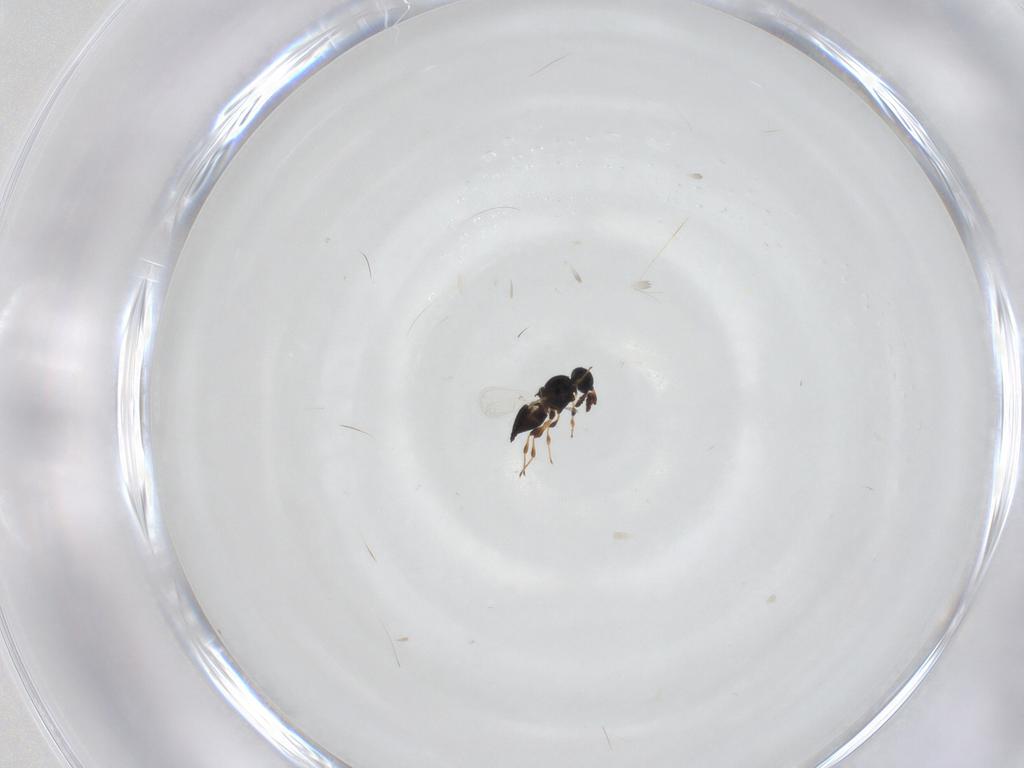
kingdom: Animalia
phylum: Arthropoda
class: Insecta
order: Hymenoptera
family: Platygastridae
